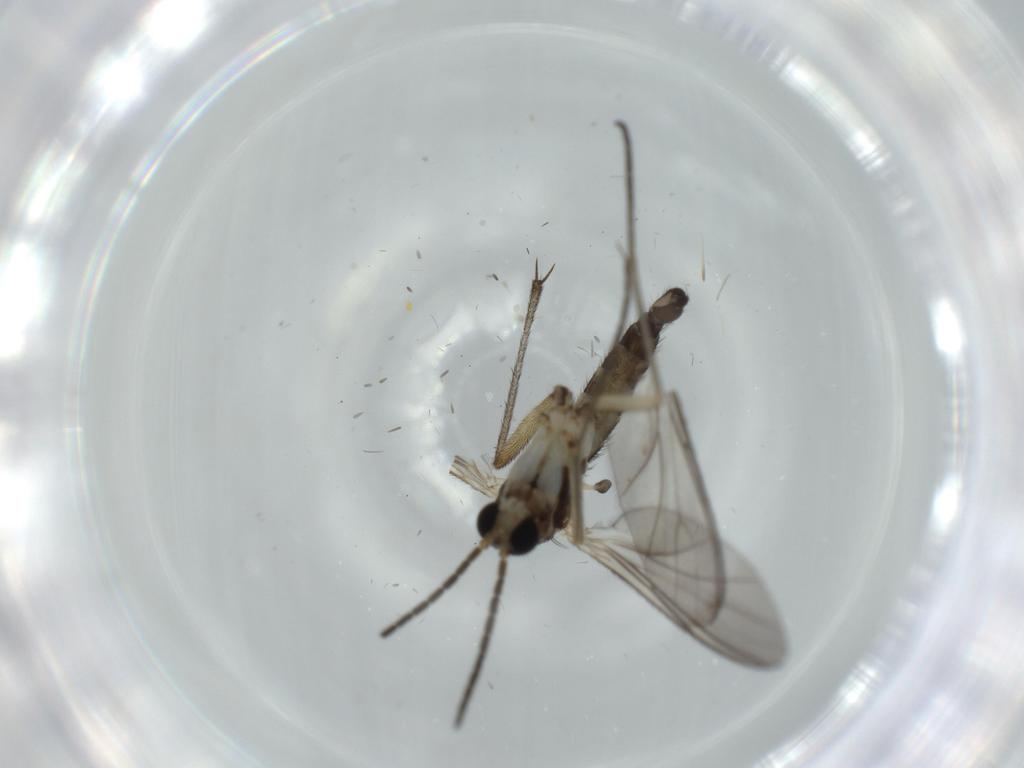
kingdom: Animalia
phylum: Arthropoda
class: Insecta
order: Diptera
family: Sciaridae
